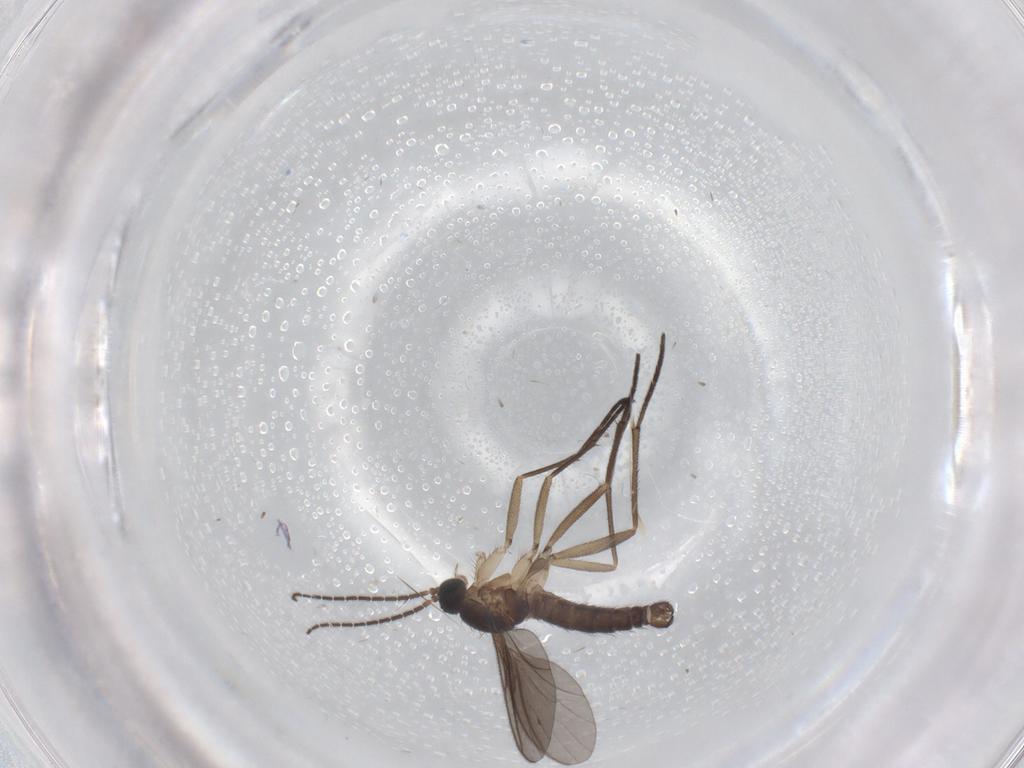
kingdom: Animalia
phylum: Arthropoda
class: Insecta
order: Diptera
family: Sciaridae
